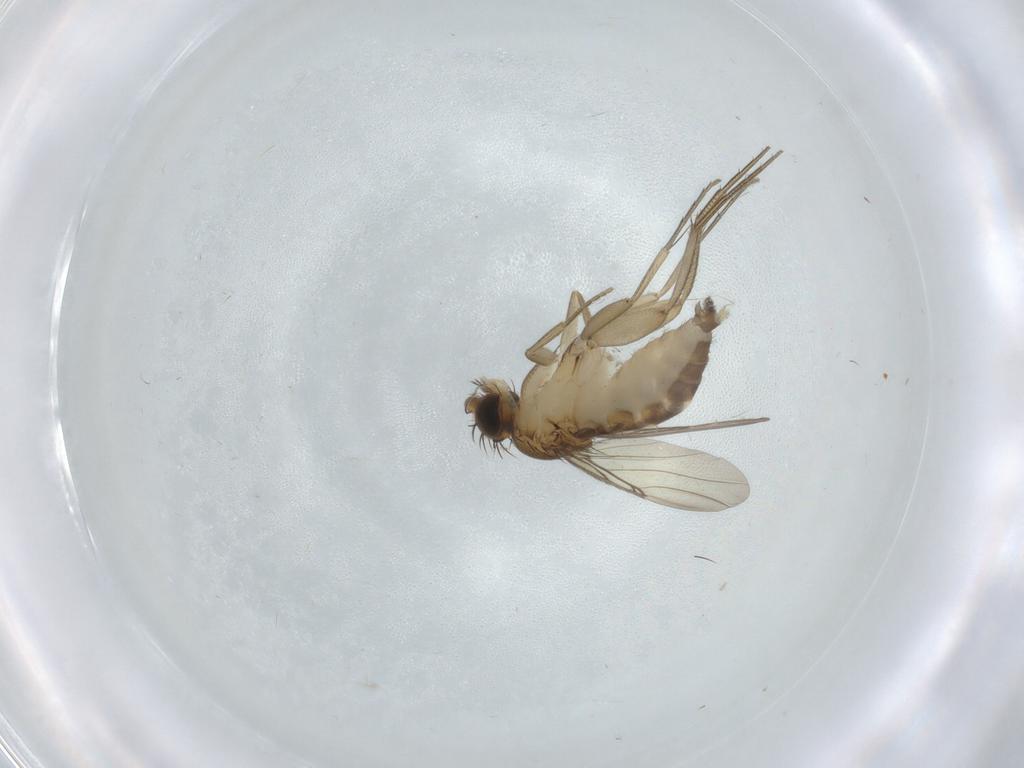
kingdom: Animalia
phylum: Arthropoda
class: Insecta
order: Diptera
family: Phoridae
